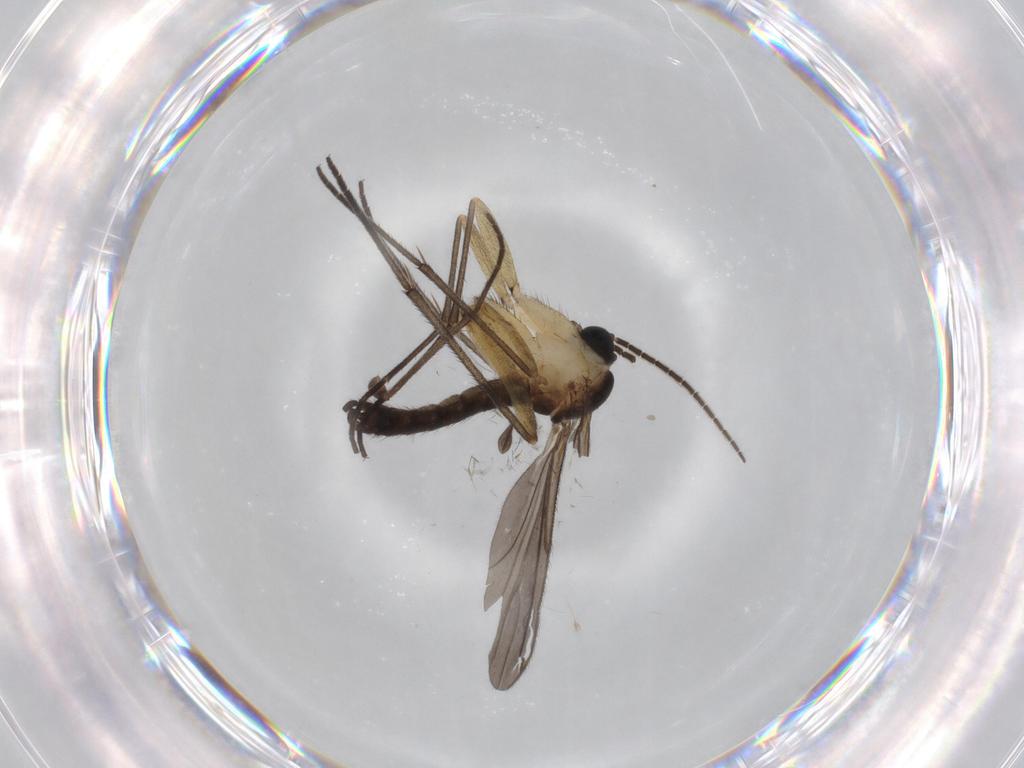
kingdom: Animalia
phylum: Arthropoda
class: Insecta
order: Diptera
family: Sciaridae
